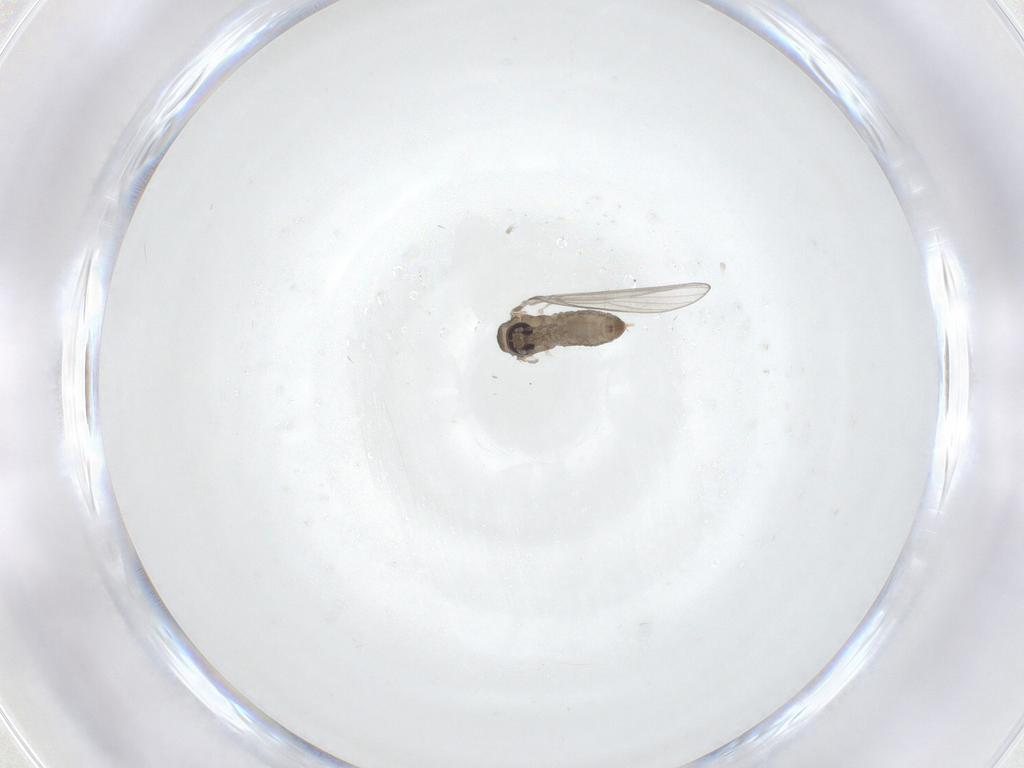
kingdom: Animalia
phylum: Arthropoda
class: Insecta
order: Diptera
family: Psychodidae
